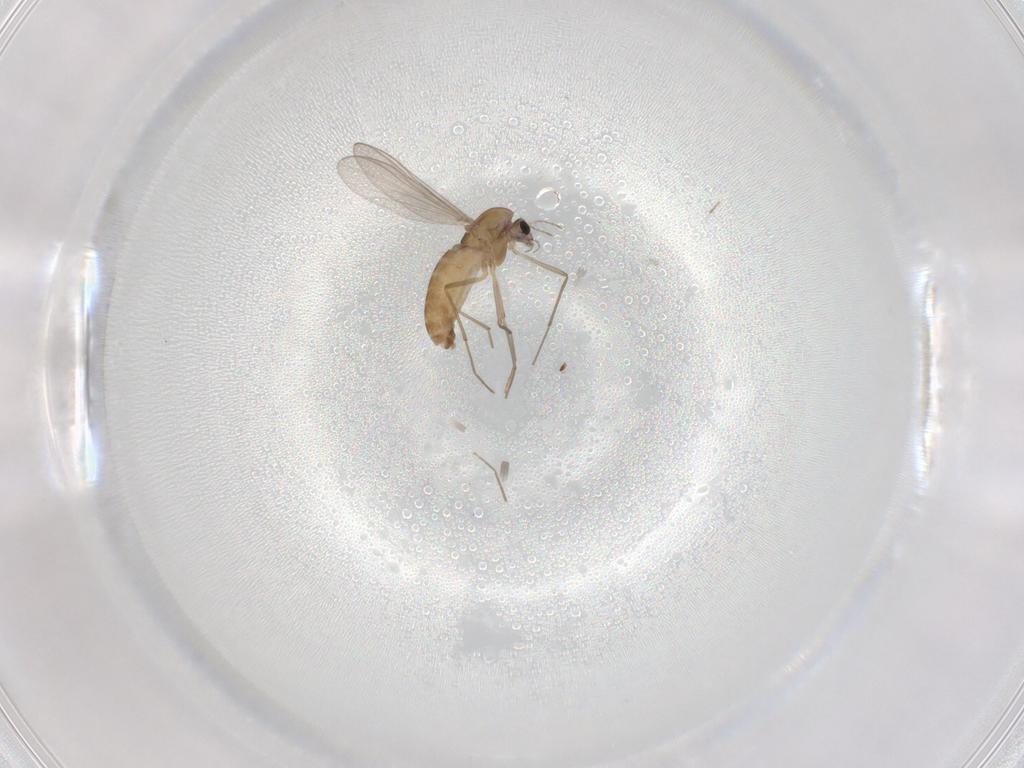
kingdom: Animalia
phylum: Arthropoda
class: Insecta
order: Diptera
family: Chironomidae
